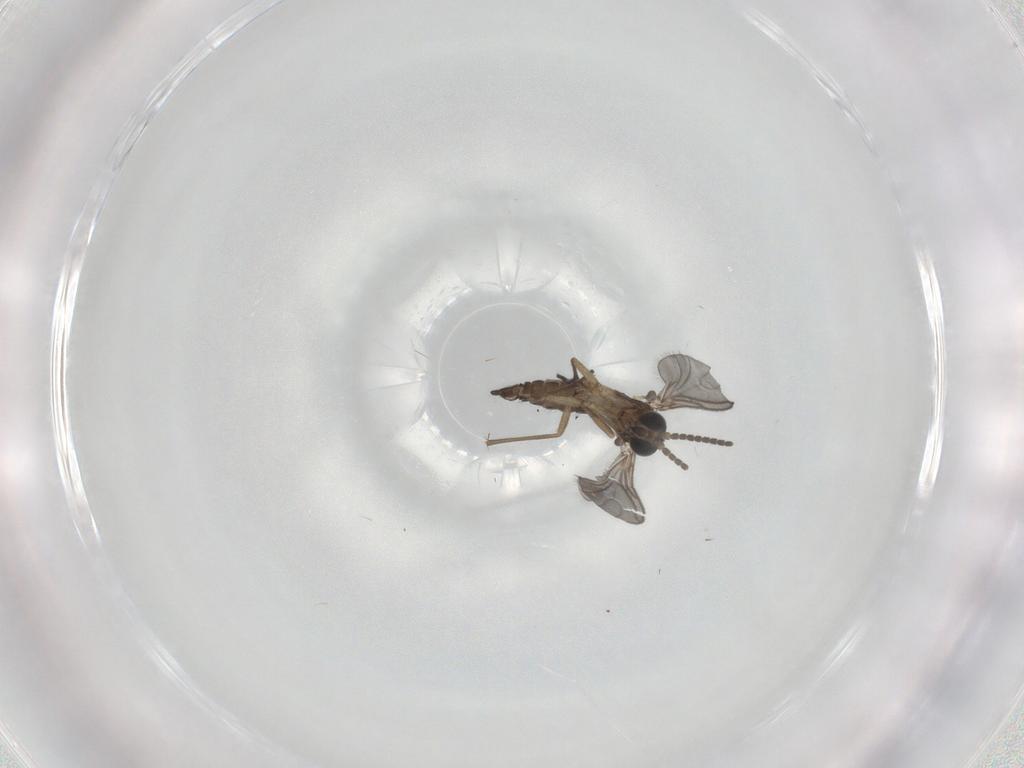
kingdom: Animalia
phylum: Arthropoda
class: Insecta
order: Diptera
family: Sciaridae
